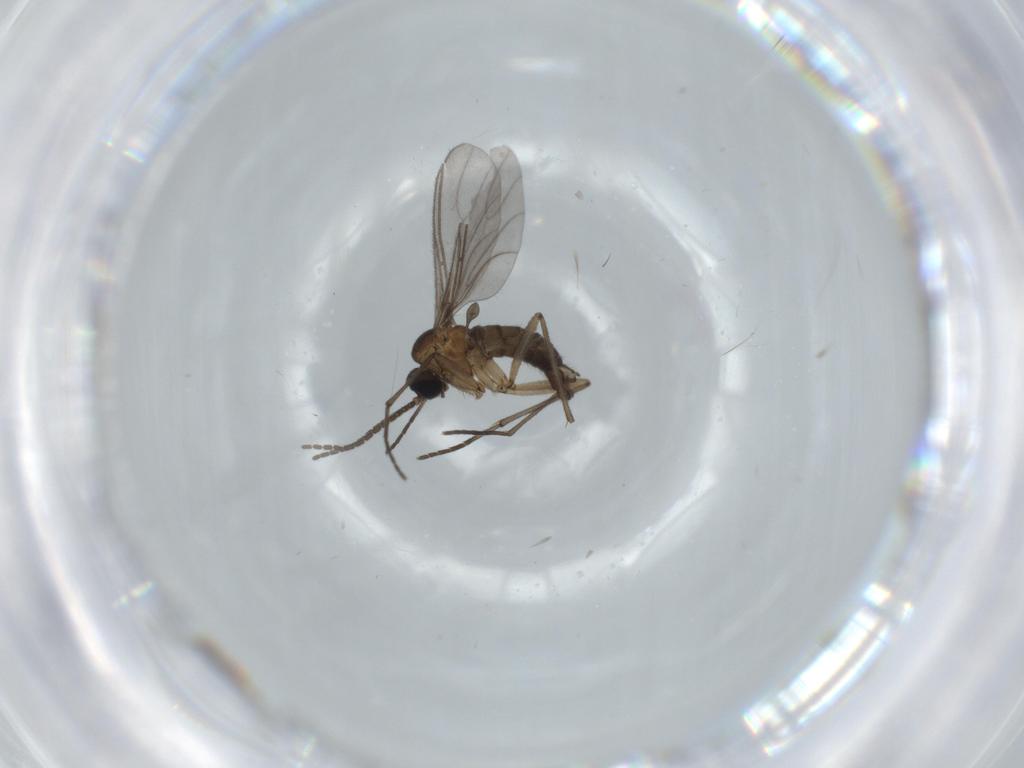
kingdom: Animalia
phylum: Arthropoda
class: Insecta
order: Diptera
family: Sciaridae
